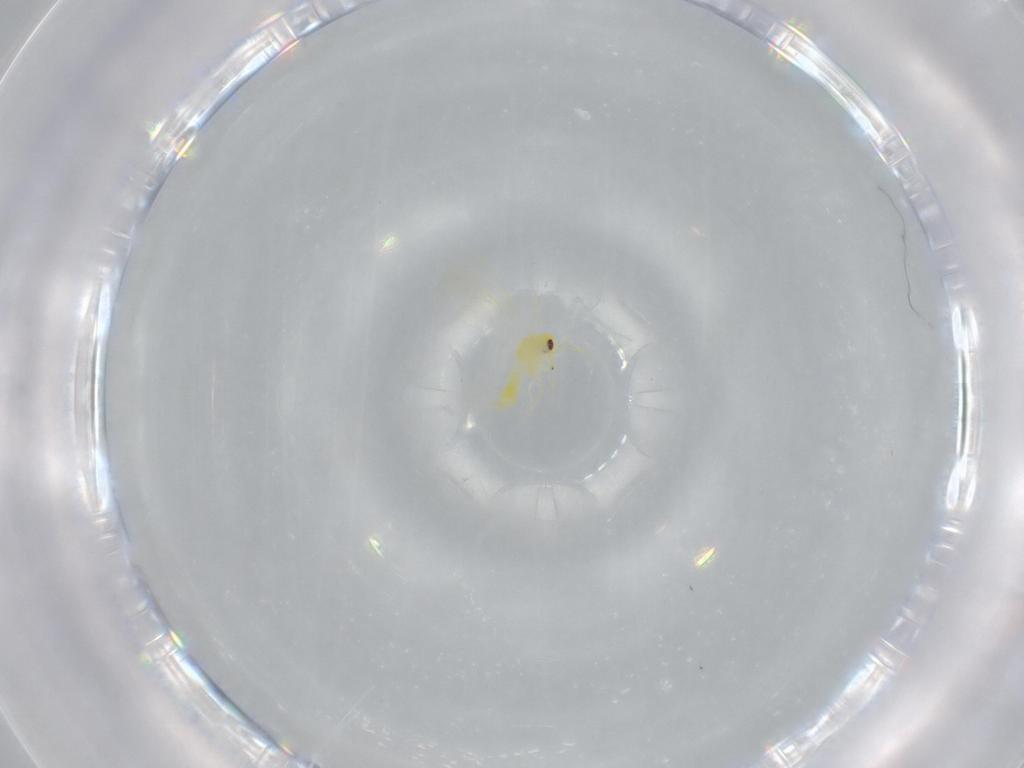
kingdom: Animalia
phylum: Arthropoda
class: Insecta
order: Hemiptera
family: Aleyrodidae
